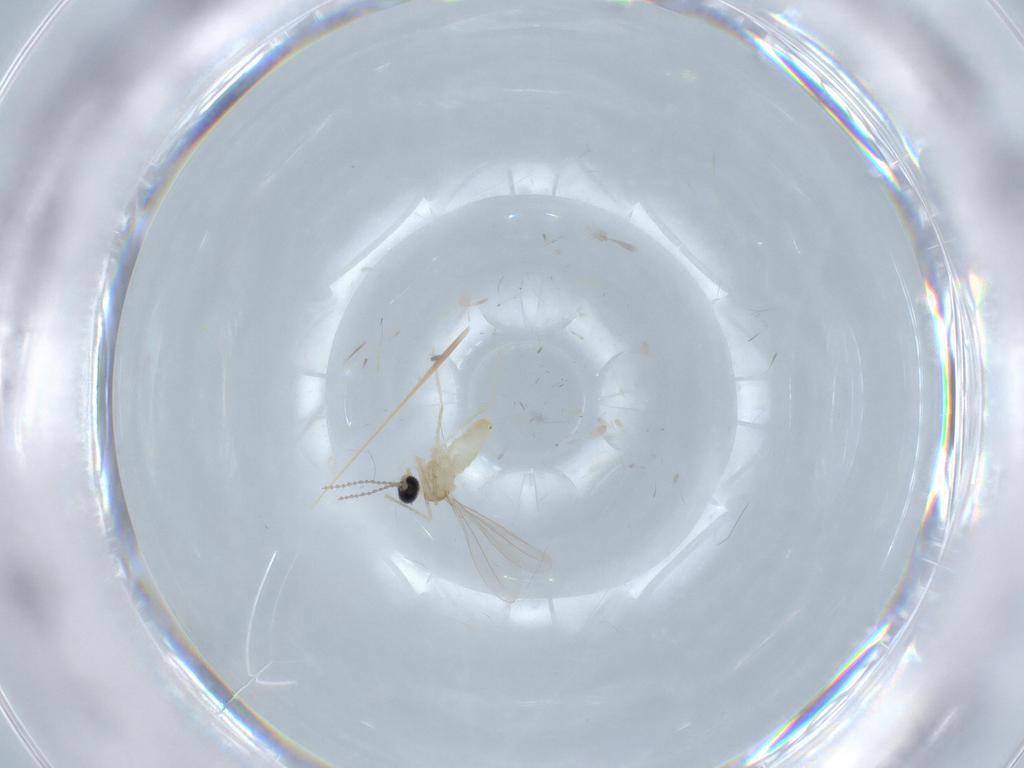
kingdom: Animalia
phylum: Arthropoda
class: Insecta
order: Diptera
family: Cecidomyiidae
